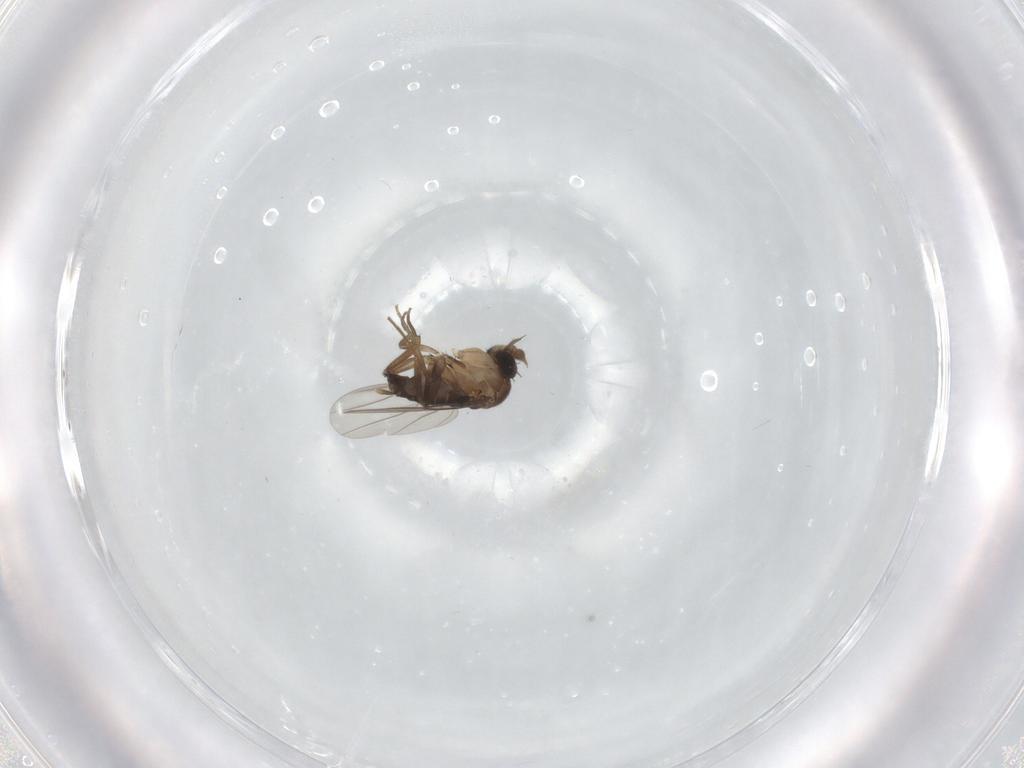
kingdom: Animalia
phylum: Arthropoda
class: Insecta
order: Diptera
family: Phoridae
